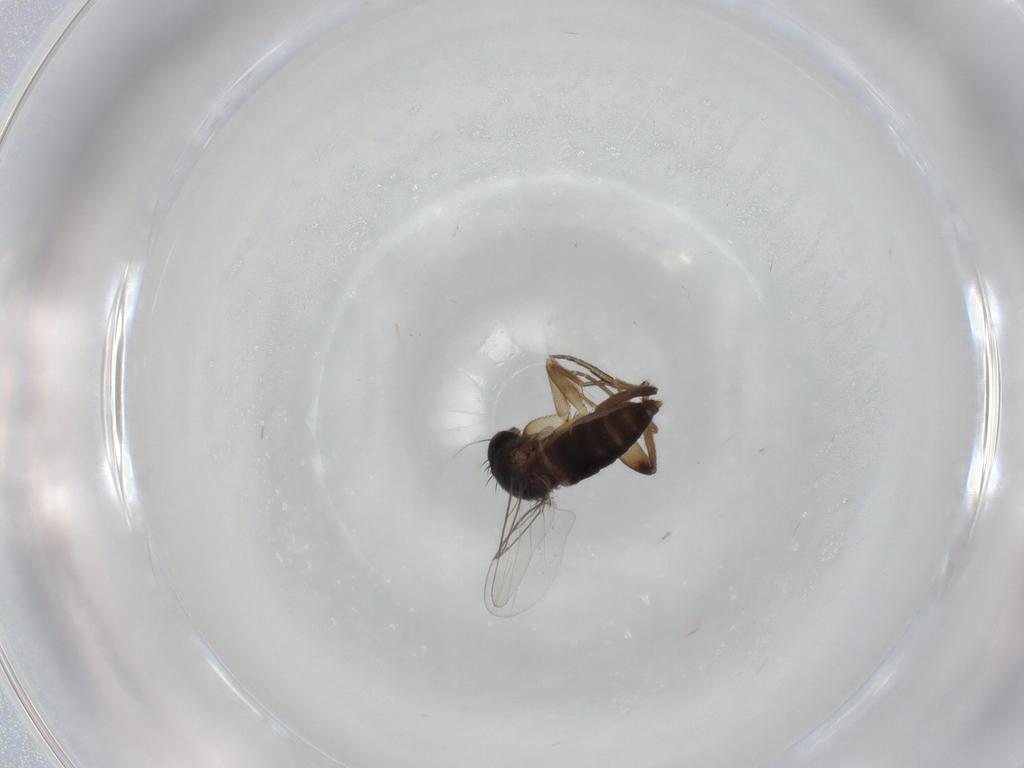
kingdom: Animalia
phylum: Arthropoda
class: Insecta
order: Diptera
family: Phoridae
